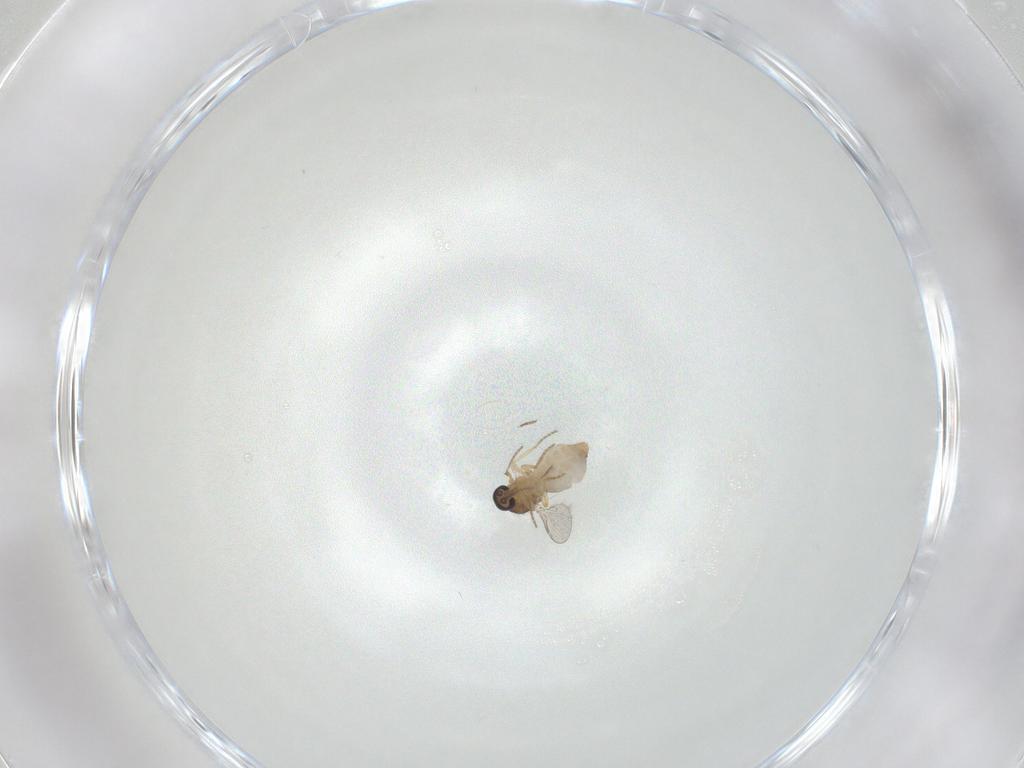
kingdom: Animalia
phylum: Arthropoda
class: Insecta
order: Diptera
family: Ceratopogonidae
